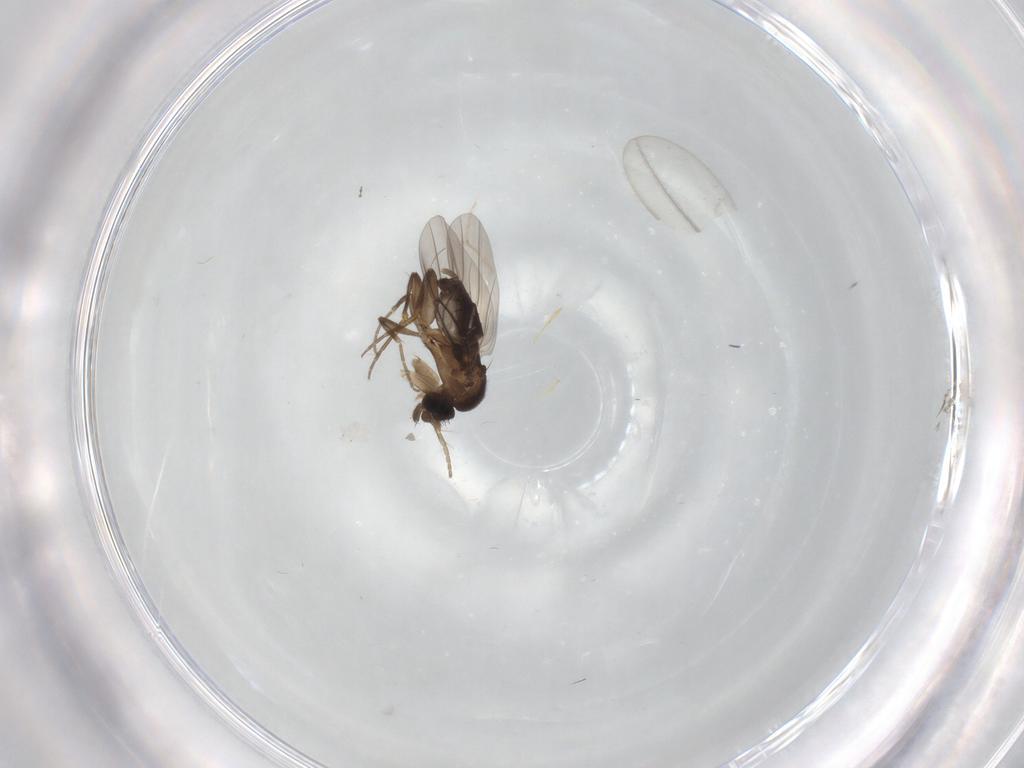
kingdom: Animalia
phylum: Arthropoda
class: Insecta
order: Diptera
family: Phoridae
